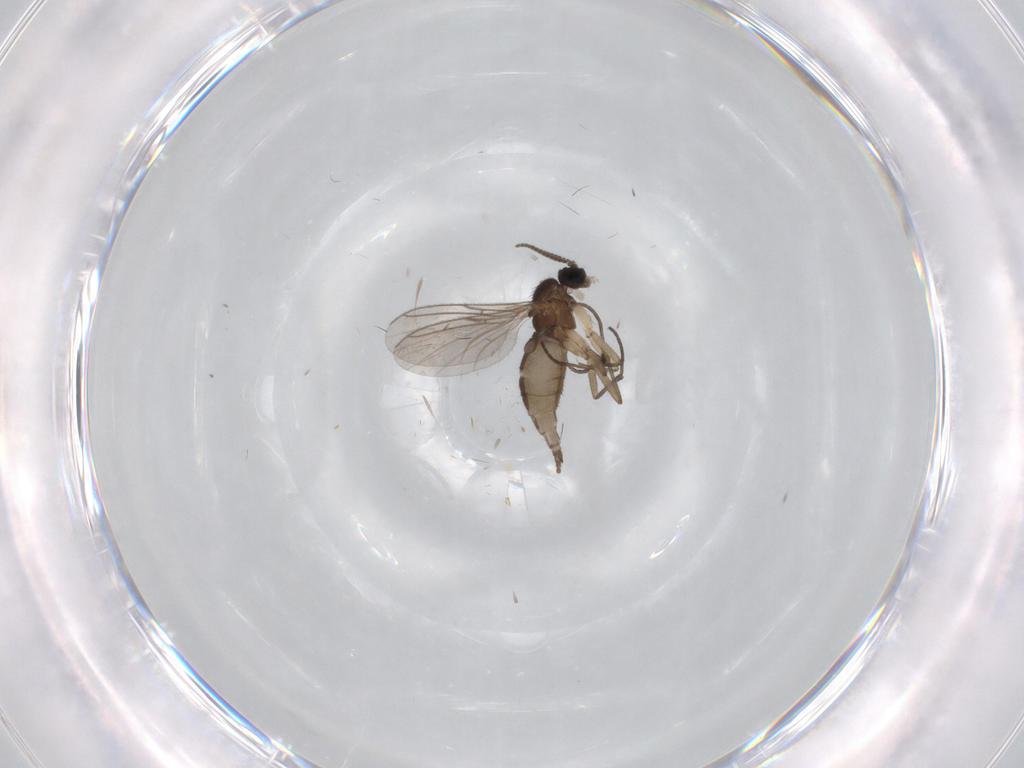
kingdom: Animalia
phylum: Arthropoda
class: Insecta
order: Diptera
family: Sciaridae
